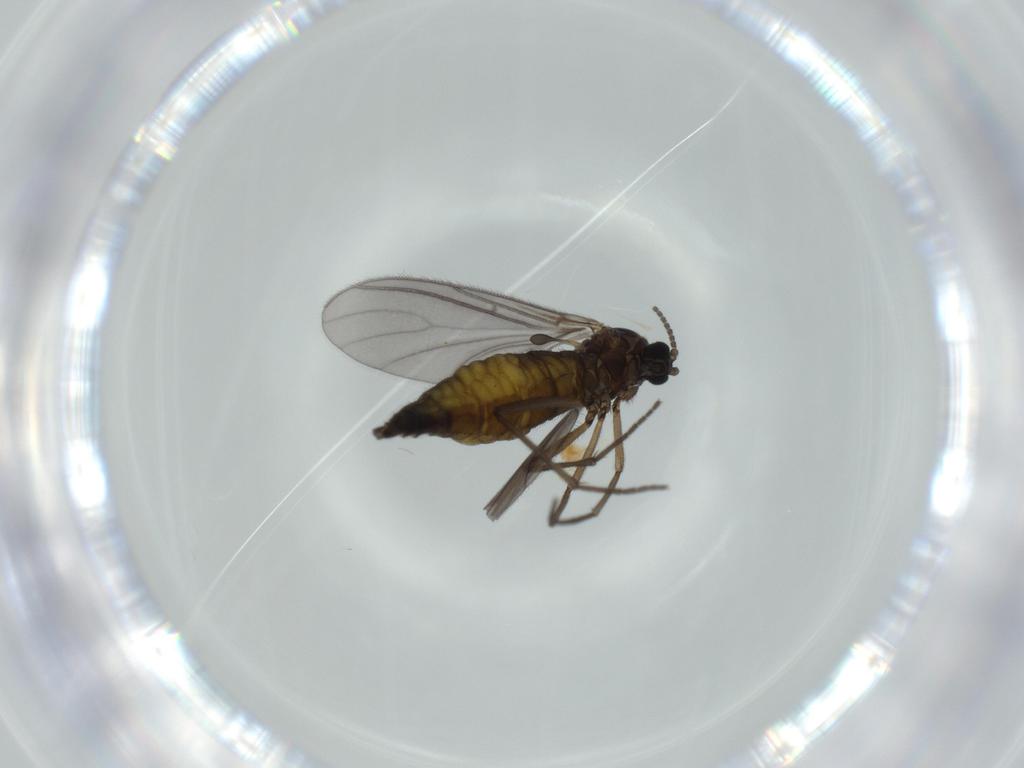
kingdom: Animalia
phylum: Arthropoda
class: Insecta
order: Diptera
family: Sciaridae
